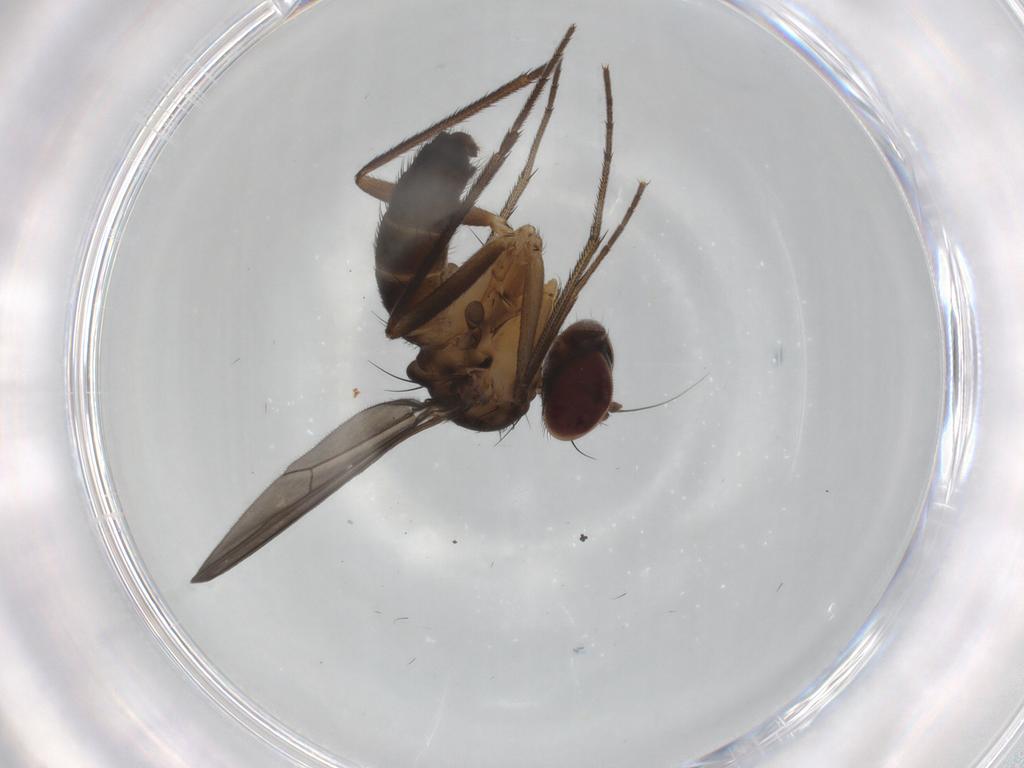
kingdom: Animalia
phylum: Arthropoda
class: Insecta
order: Diptera
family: Dolichopodidae
